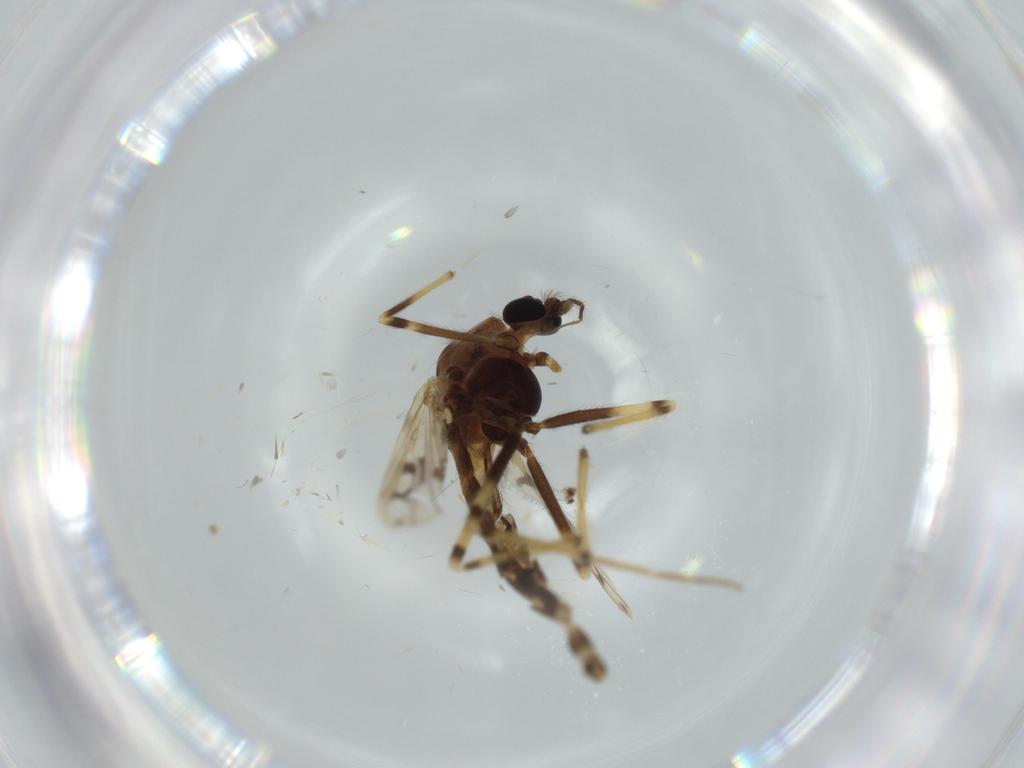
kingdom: Animalia
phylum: Arthropoda
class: Insecta
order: Diptera
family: Ceratopogonidae
